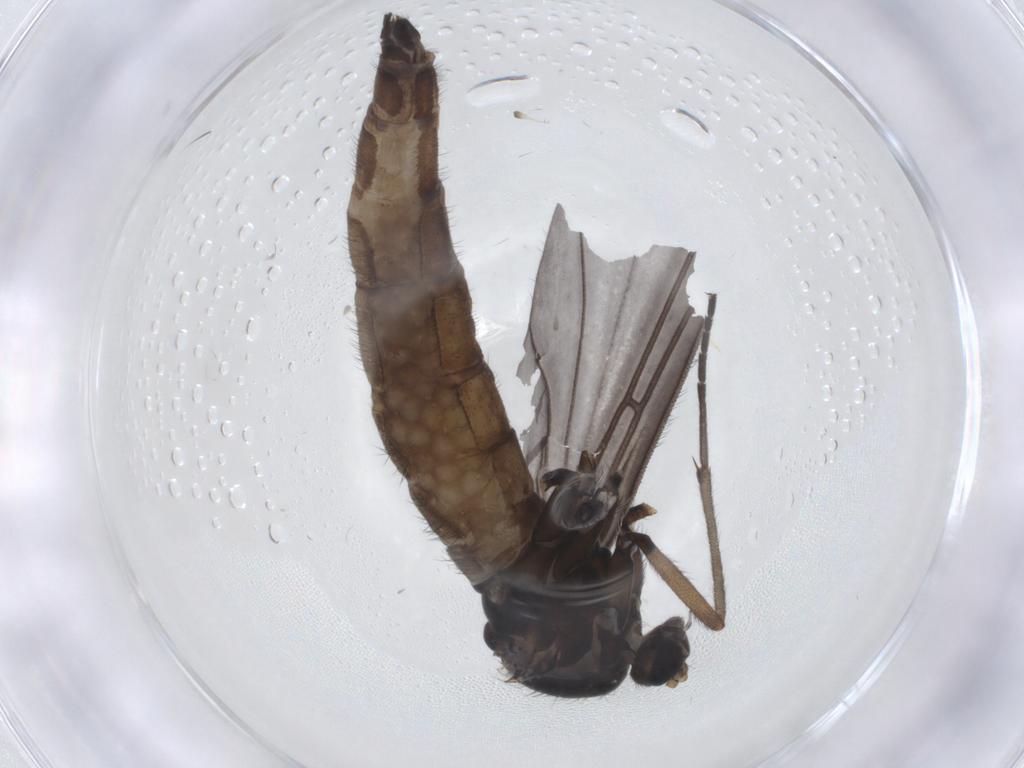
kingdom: Animalia
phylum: Arthropoda
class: Insecta
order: Diptera
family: Sciaridae
